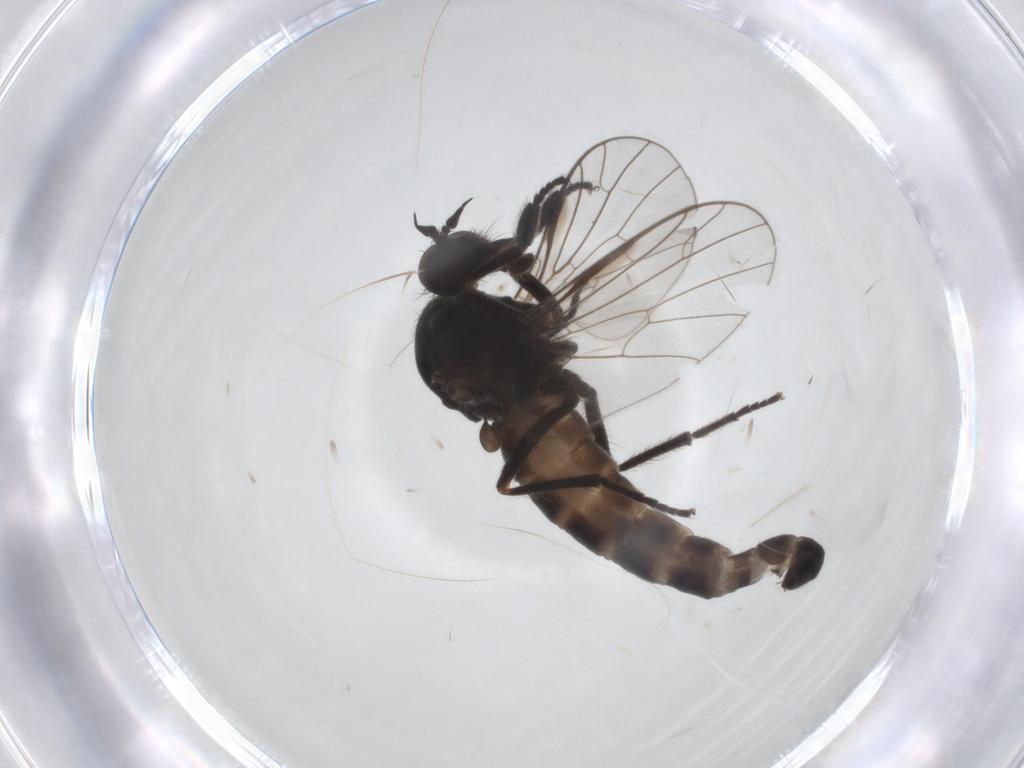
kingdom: Animalia
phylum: Arthropoda
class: Insecta
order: Diptera
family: Empididae
